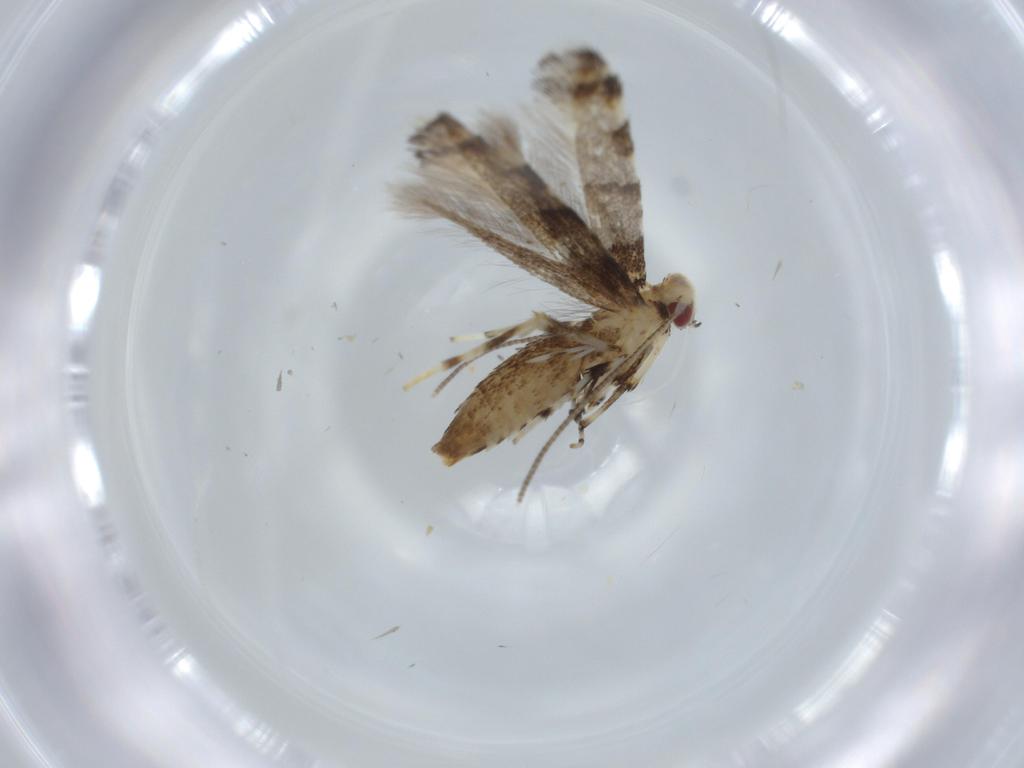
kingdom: Animalia
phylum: Arthropoda
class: Insecta
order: Lepidoptera
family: Gracillariidae
